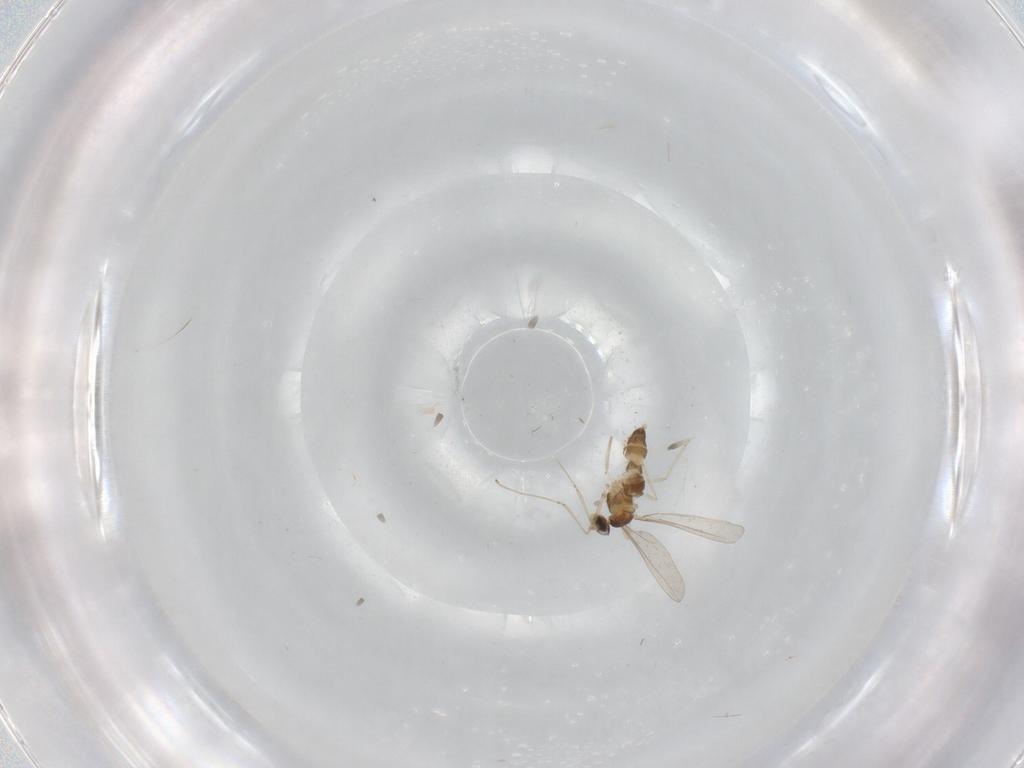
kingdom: Animalia
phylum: Arthropoda
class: Insecta
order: Diptera
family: Cecidomyiidae
